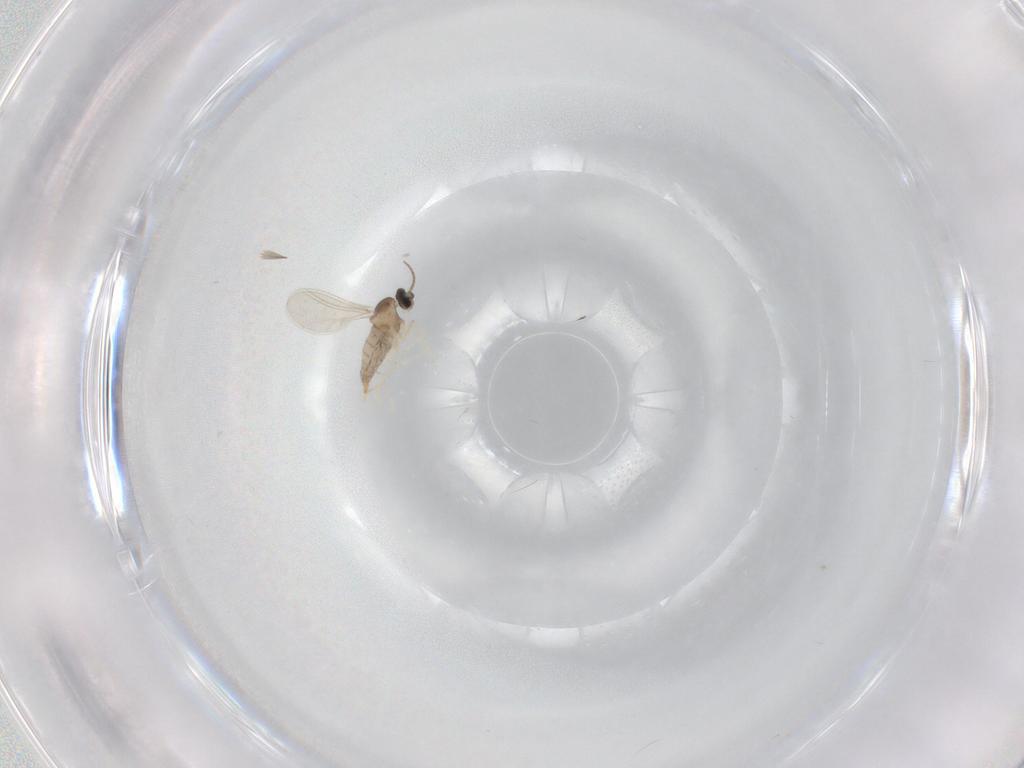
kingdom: Animalia
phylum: Arthropoda
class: Insecta
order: Diptera
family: Cecidomyiidae
